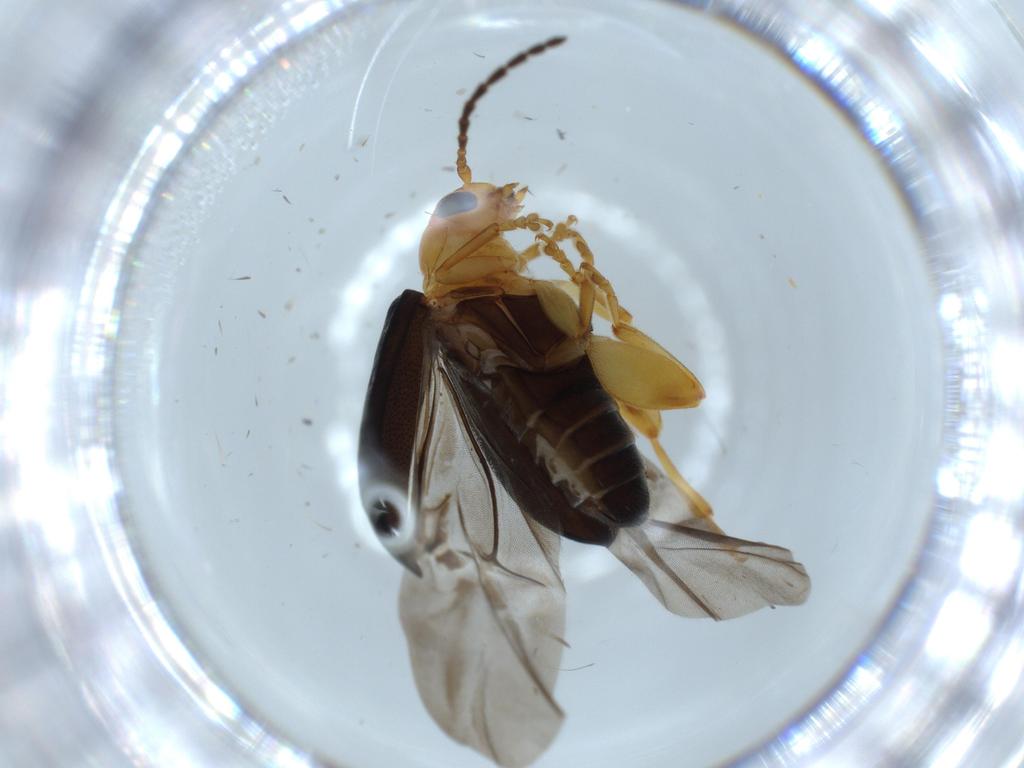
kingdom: Animalia
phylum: Arthropoda
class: Insecta
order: Coleoptera
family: Chrysomelidae
